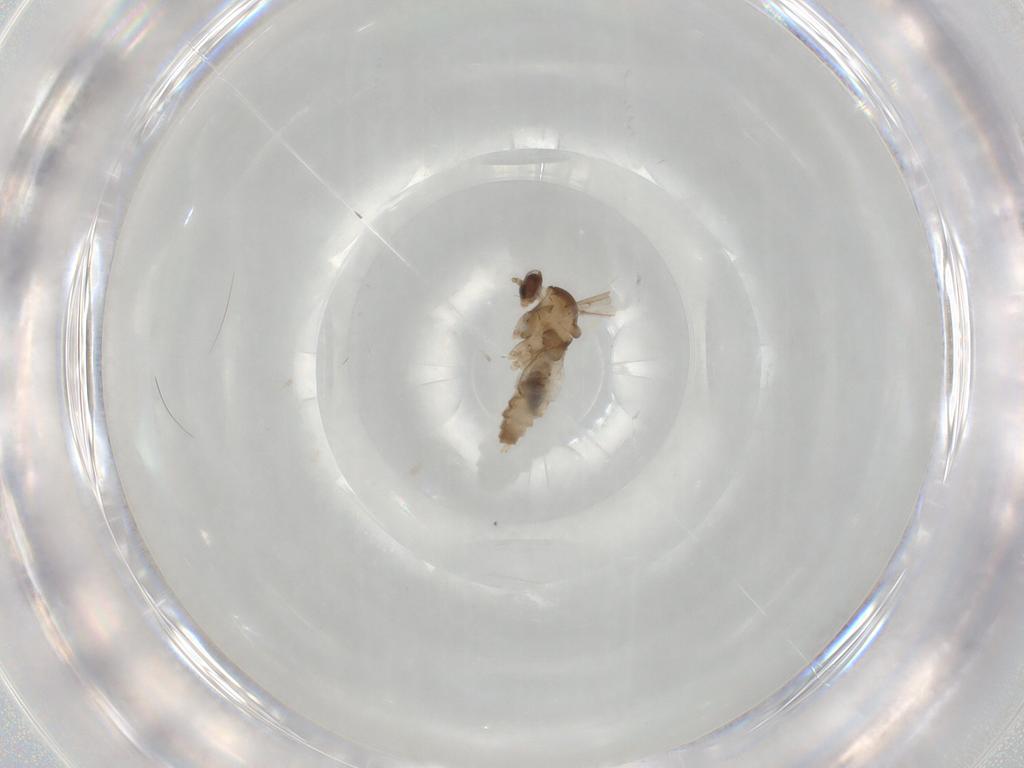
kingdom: Animalia
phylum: Arthropoda
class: Insecta
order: Diptera
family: Cecidomyiidae
